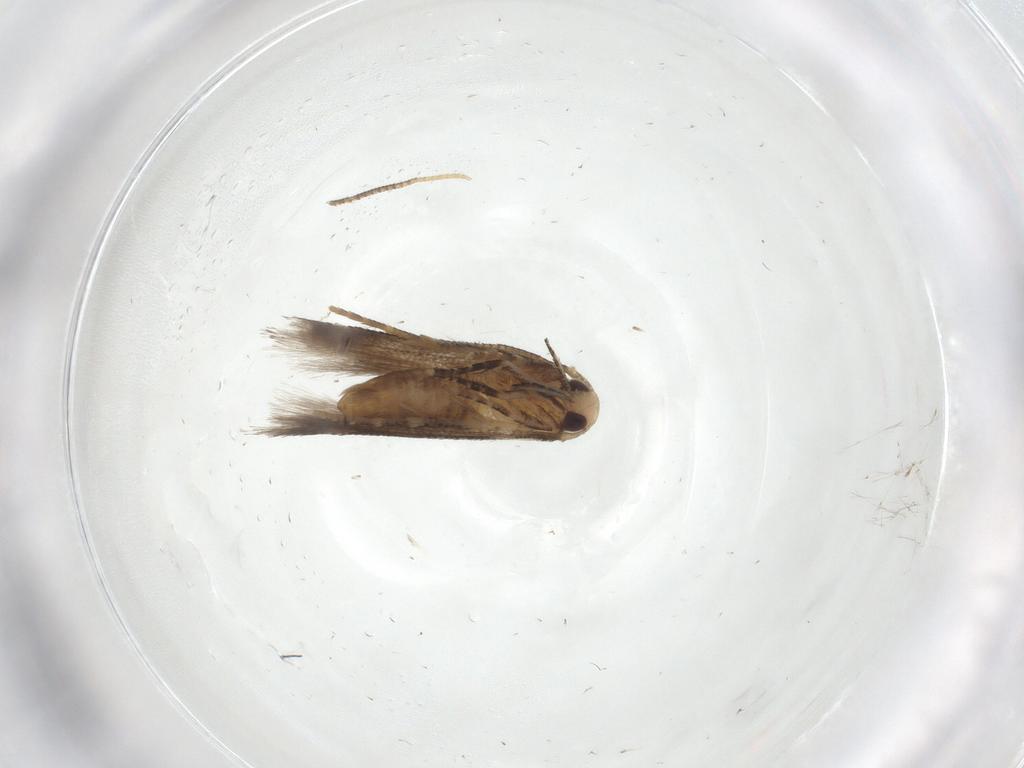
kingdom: Animalia
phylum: Arthropoda
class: Insecta
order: Lepidoptera
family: Cosmopterigidae
